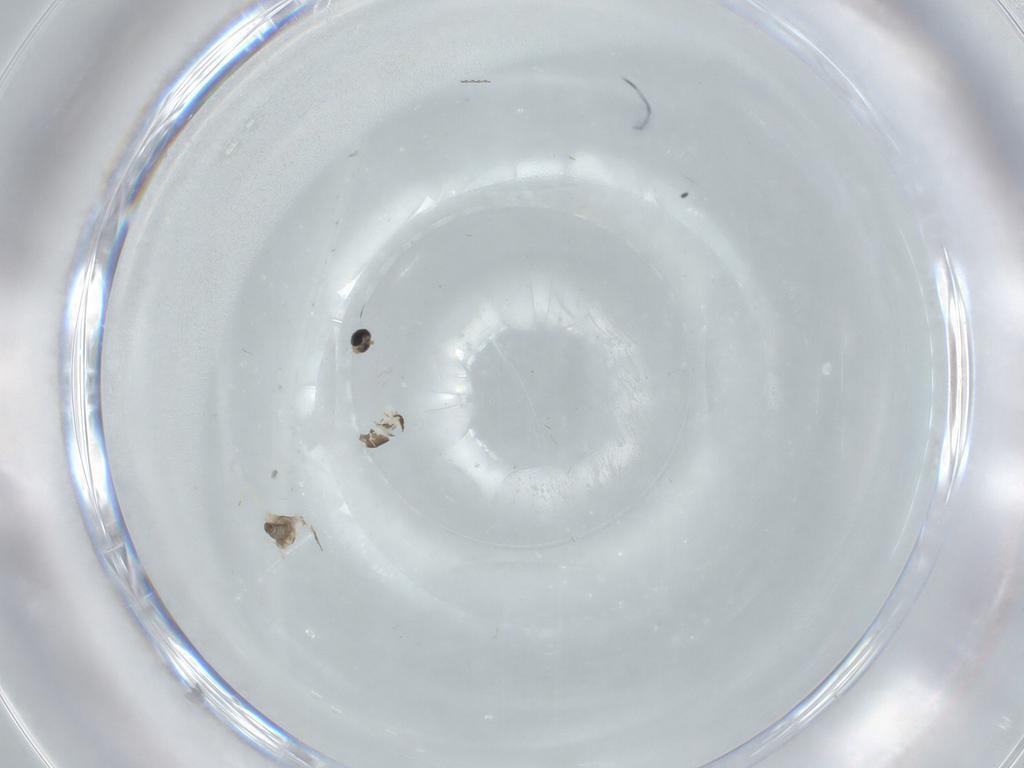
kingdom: Animalia
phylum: Arthropoda
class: Insecta
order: Diptera
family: Cecidomyiidae
